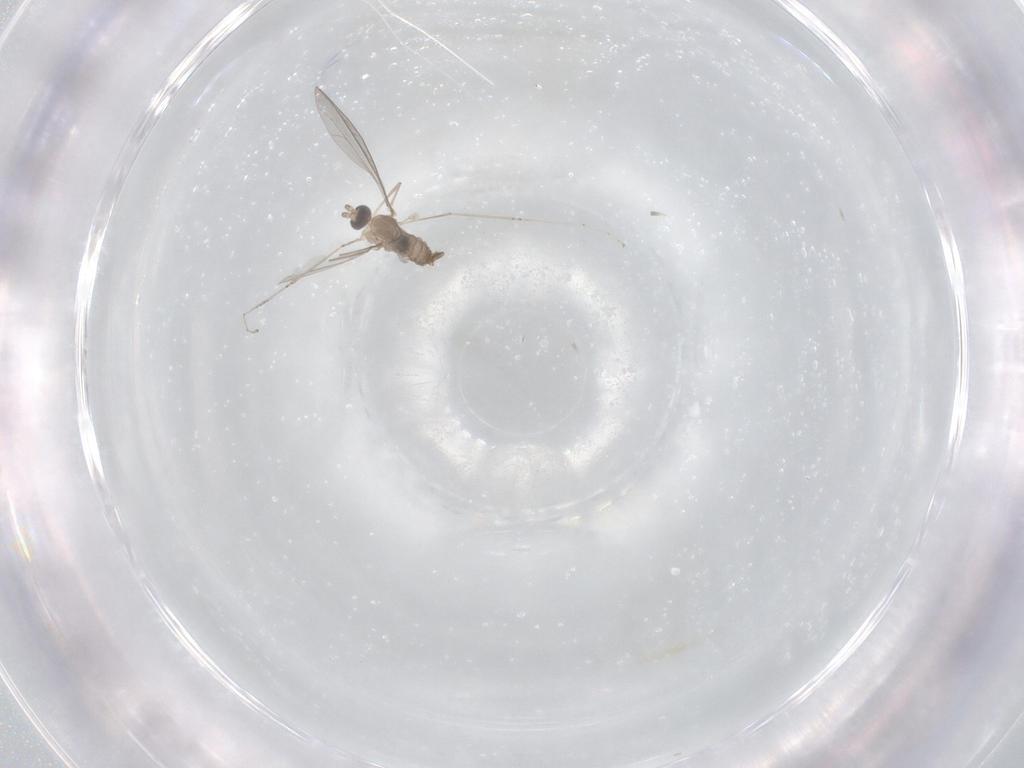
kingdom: Animalia
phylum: Arthropoda
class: Insecta
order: Diptera
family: Cecidomyiidae
